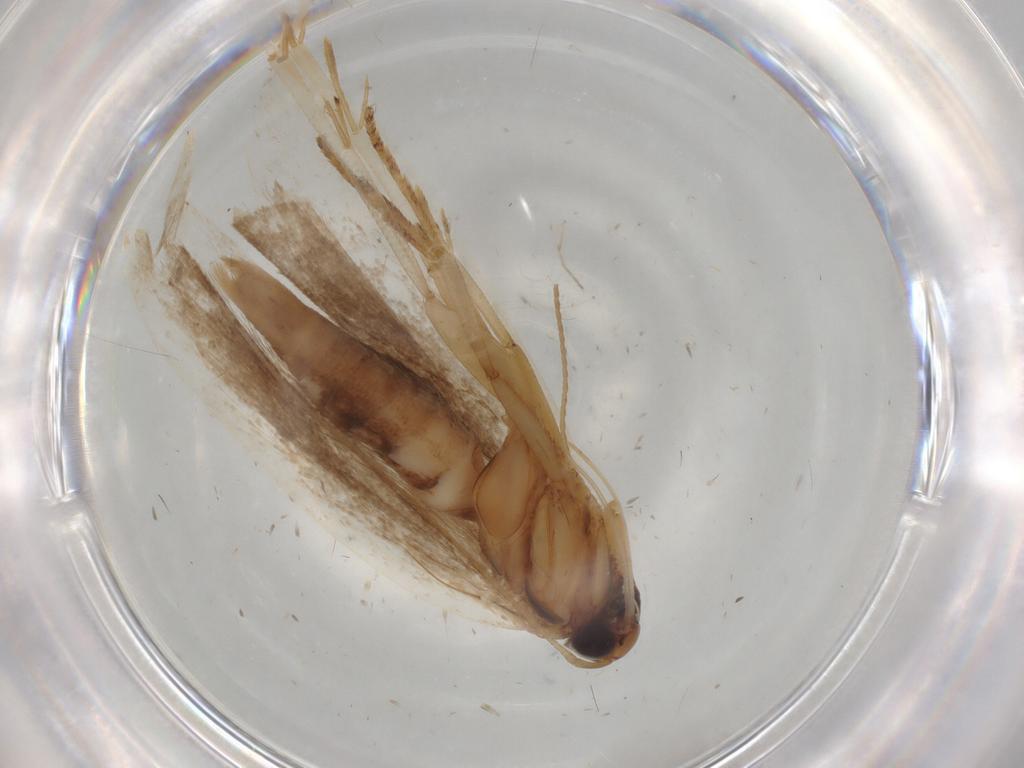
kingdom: Animalia
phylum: Arthropoda
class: Insecta
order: Lepidoptera
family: Gelechiidae
